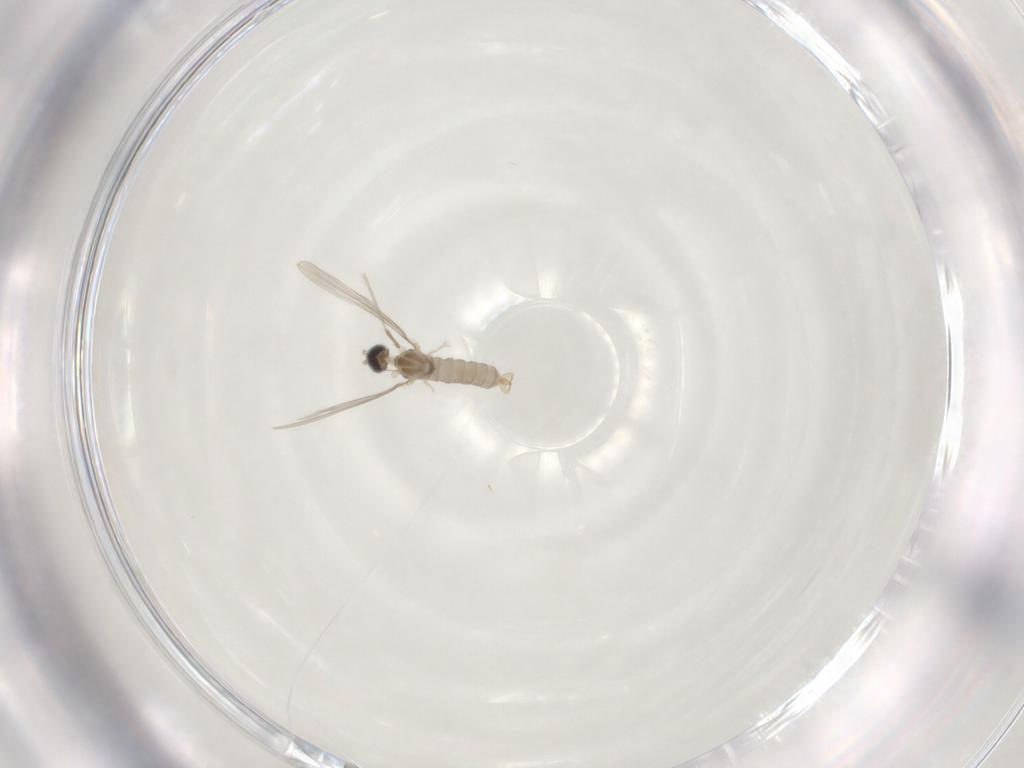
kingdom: Animalia
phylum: Arthropoda
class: Insecta
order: Diptera
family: Cecidomyiidae
